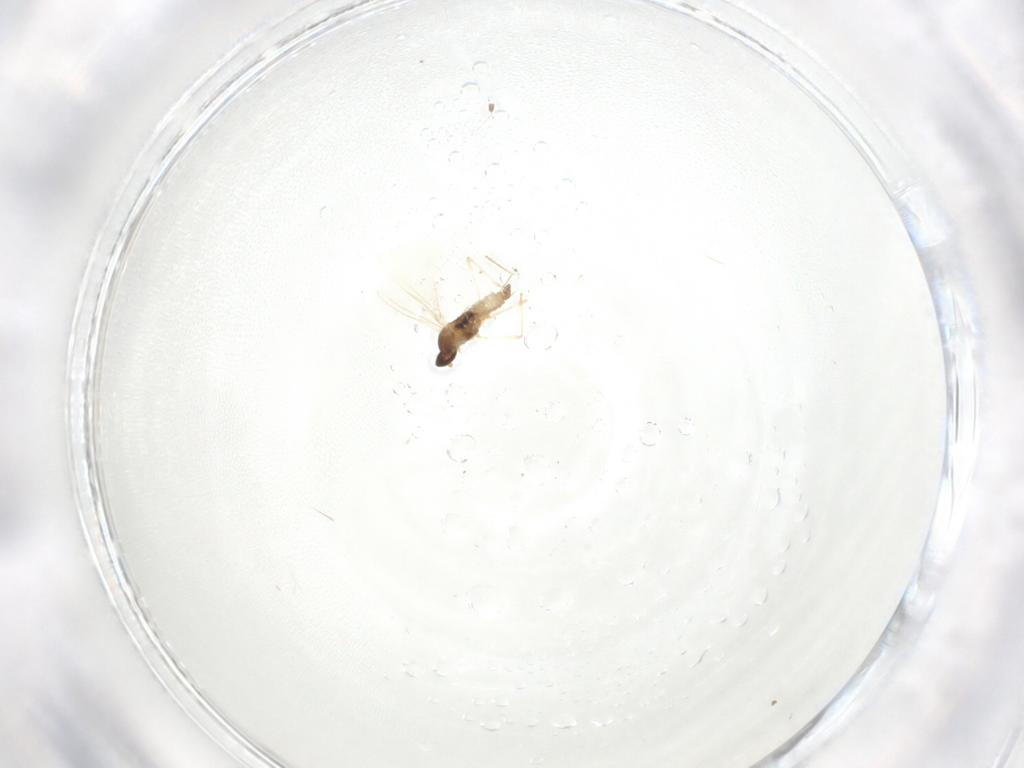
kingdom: Animalia
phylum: Arthropoda
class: Insecta
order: Diptera
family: Cecidomyiidae
